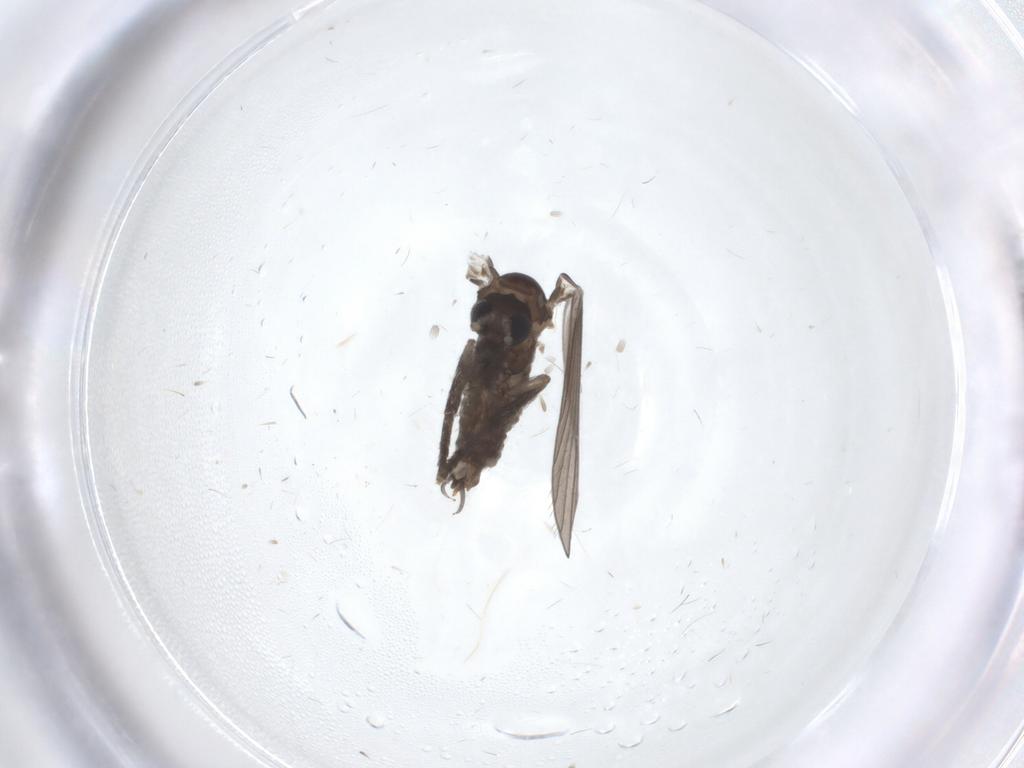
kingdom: Animalia
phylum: Arthropoda
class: Insecta
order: Diptera
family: Psychodidae
